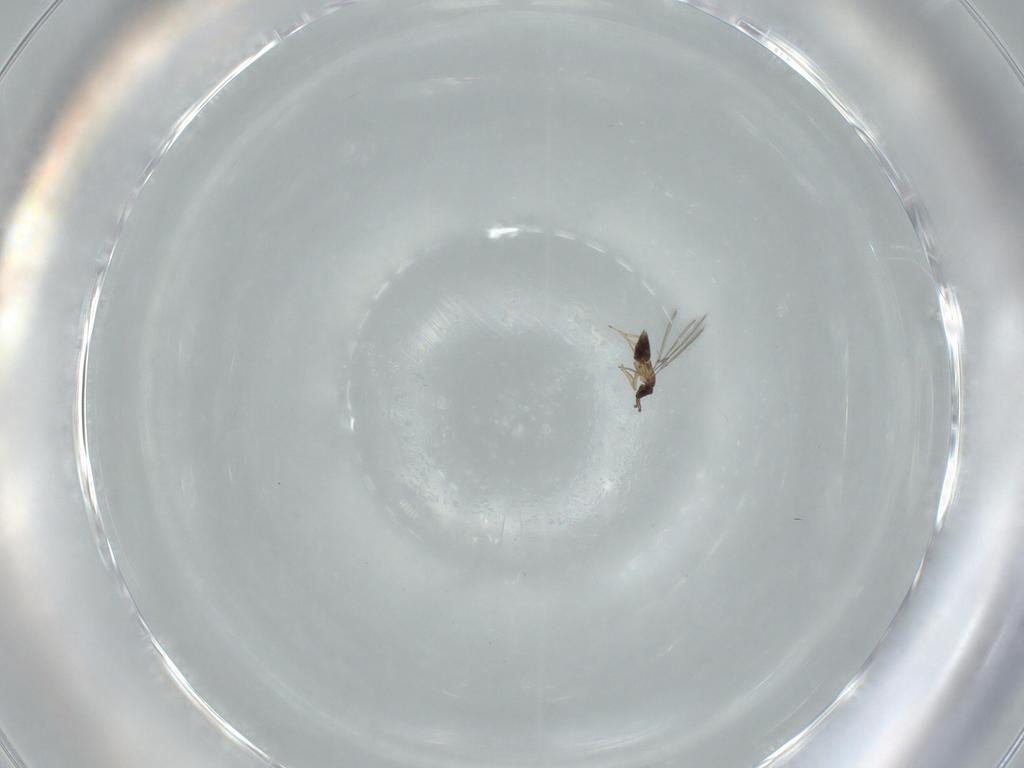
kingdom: Animalia
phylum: Arthropoda
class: Insecta
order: Hymenoptera
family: Mymaridae
